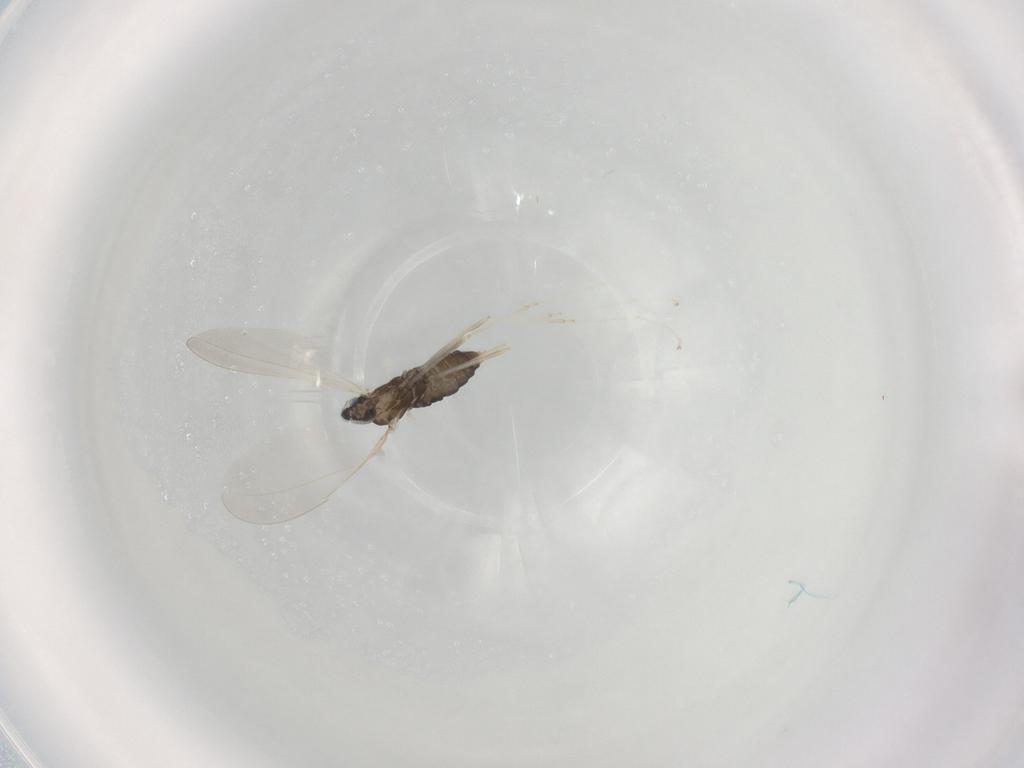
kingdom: Animalia
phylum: Arthropoda
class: Insecta
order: Diptera
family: Cecidomyiidae
